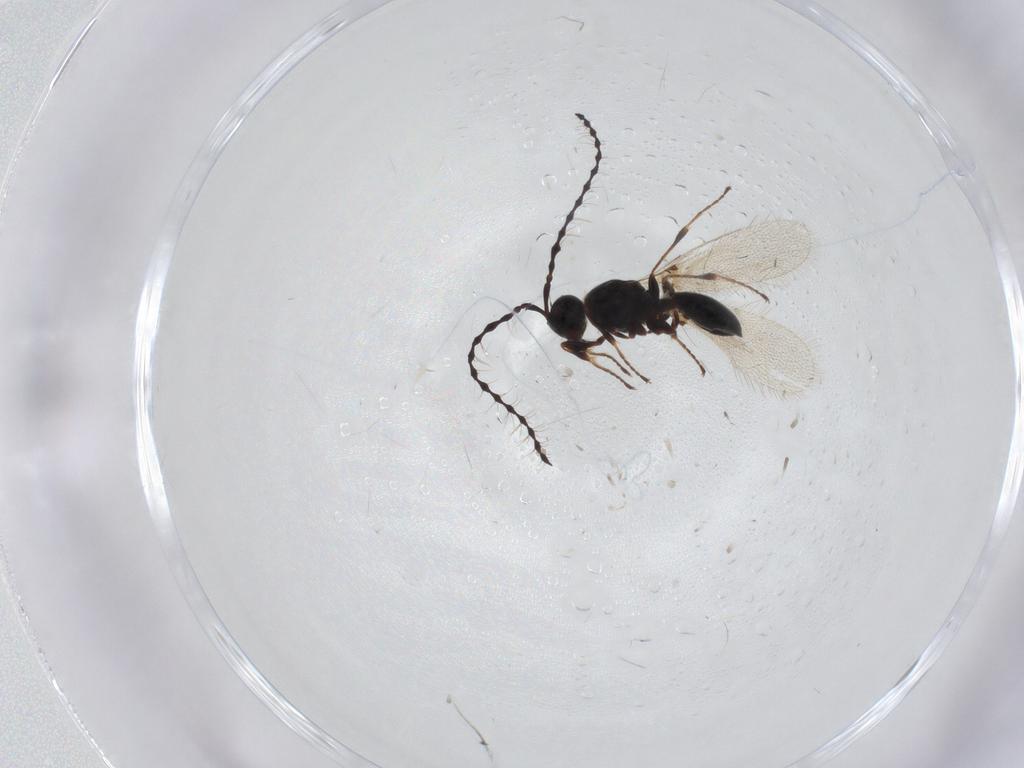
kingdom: Animalia
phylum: Arthropoda
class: Insecta
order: Hymenoptera
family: Diapriidae
